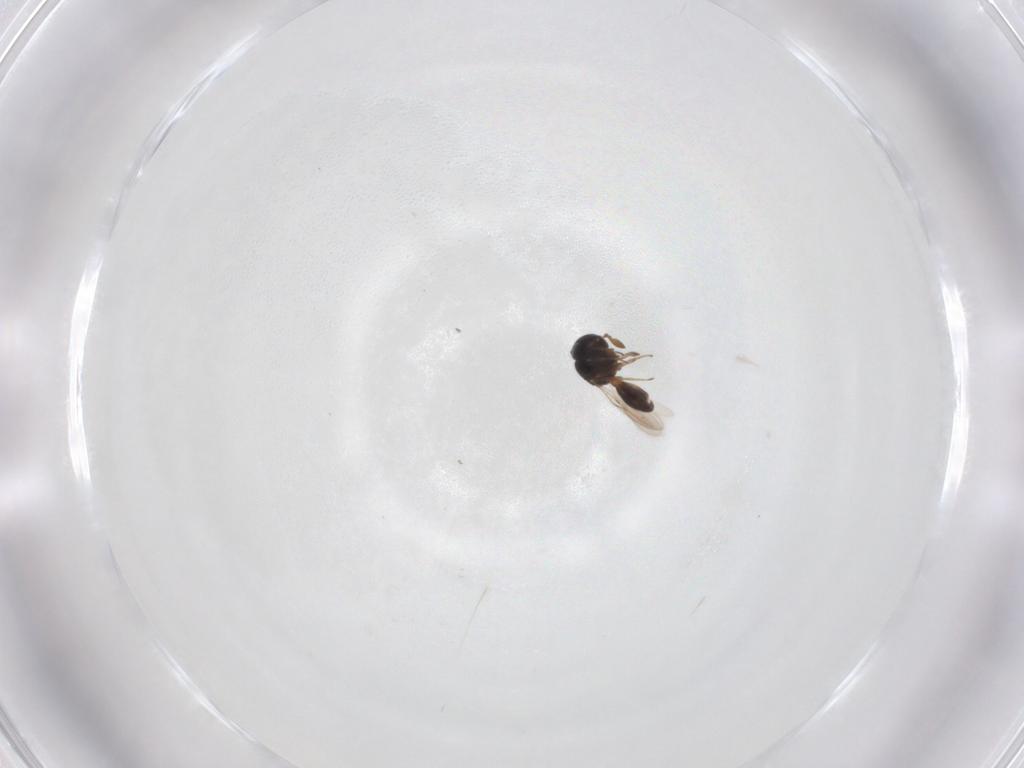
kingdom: Animalia
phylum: Arthropoda
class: Insecta
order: Hymenoptera
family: Scelionidae
